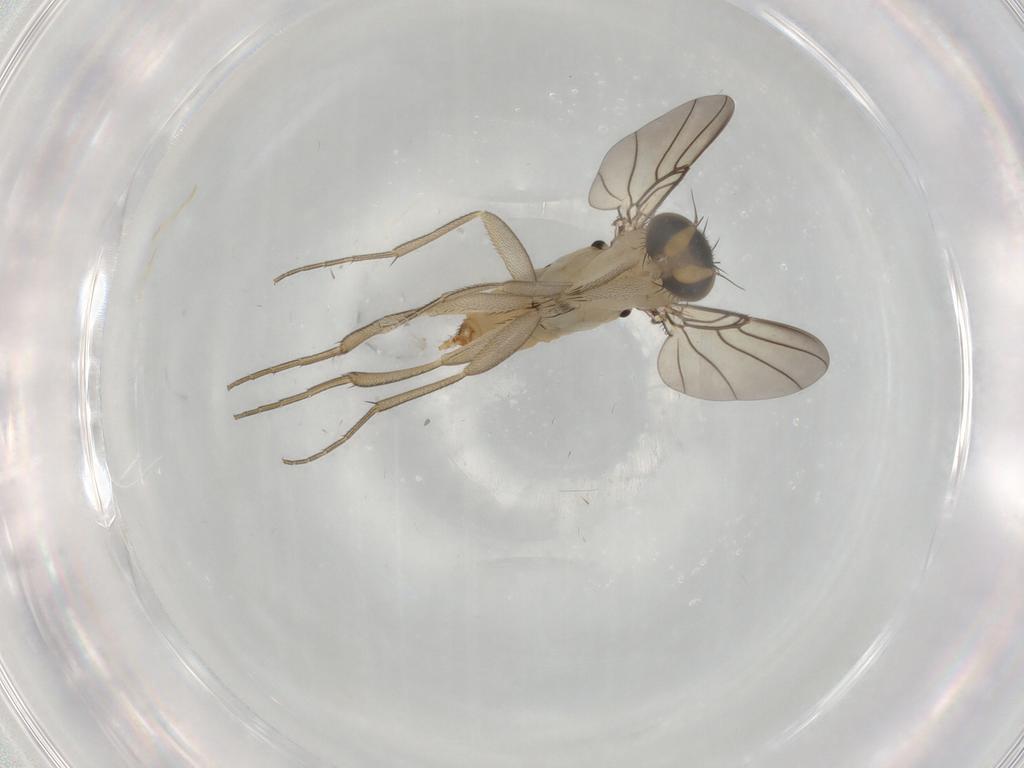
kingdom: Animalia
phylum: Arthropoda
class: Insecta
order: Diptera
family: Phoridae
